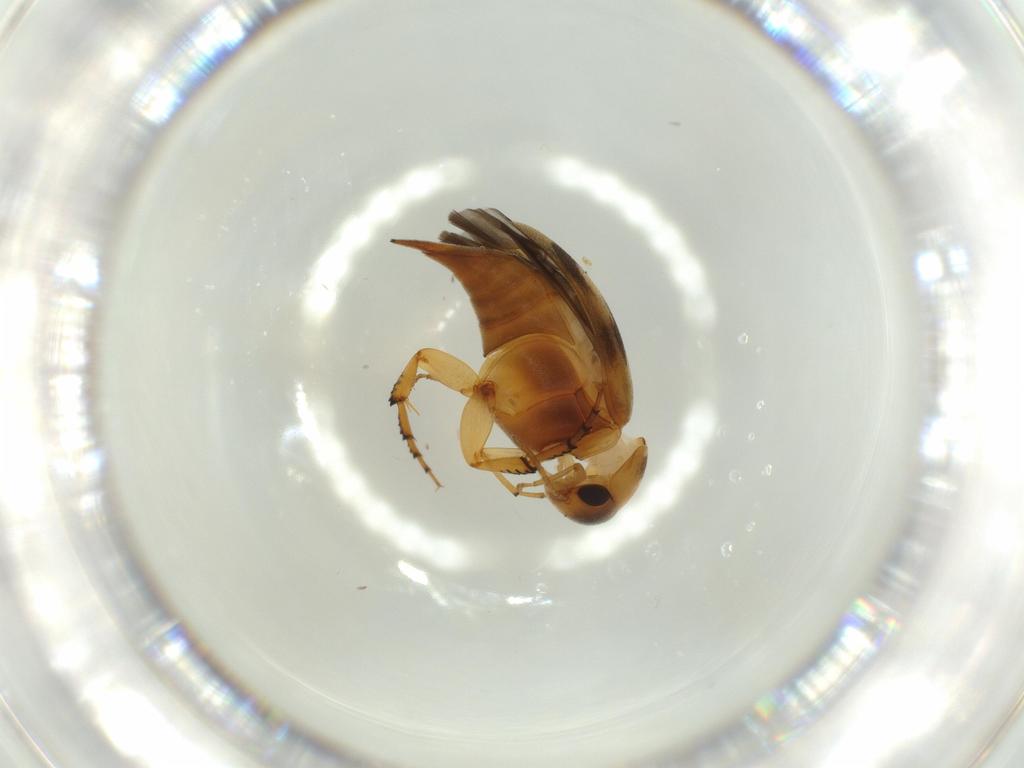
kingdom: Animalia
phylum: Arthropoda
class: Insecta
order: Coleoptera
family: Mordellidae
